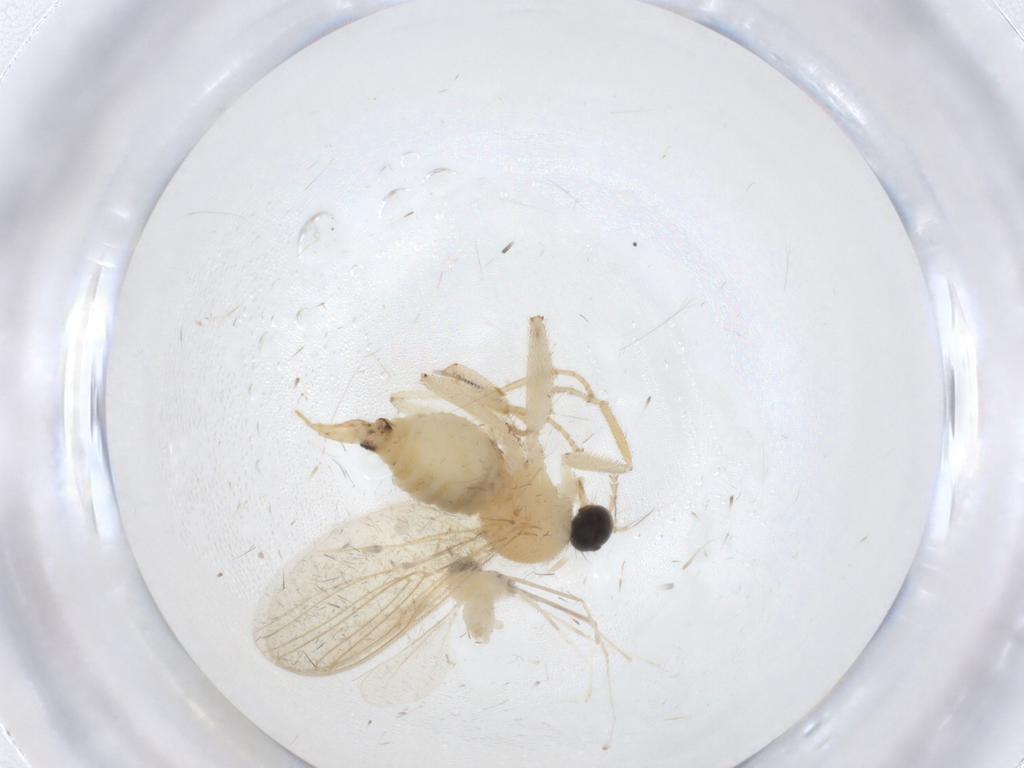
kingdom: Animalia
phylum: Arthropoda
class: Insecta
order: Diptera
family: Hybotidae
